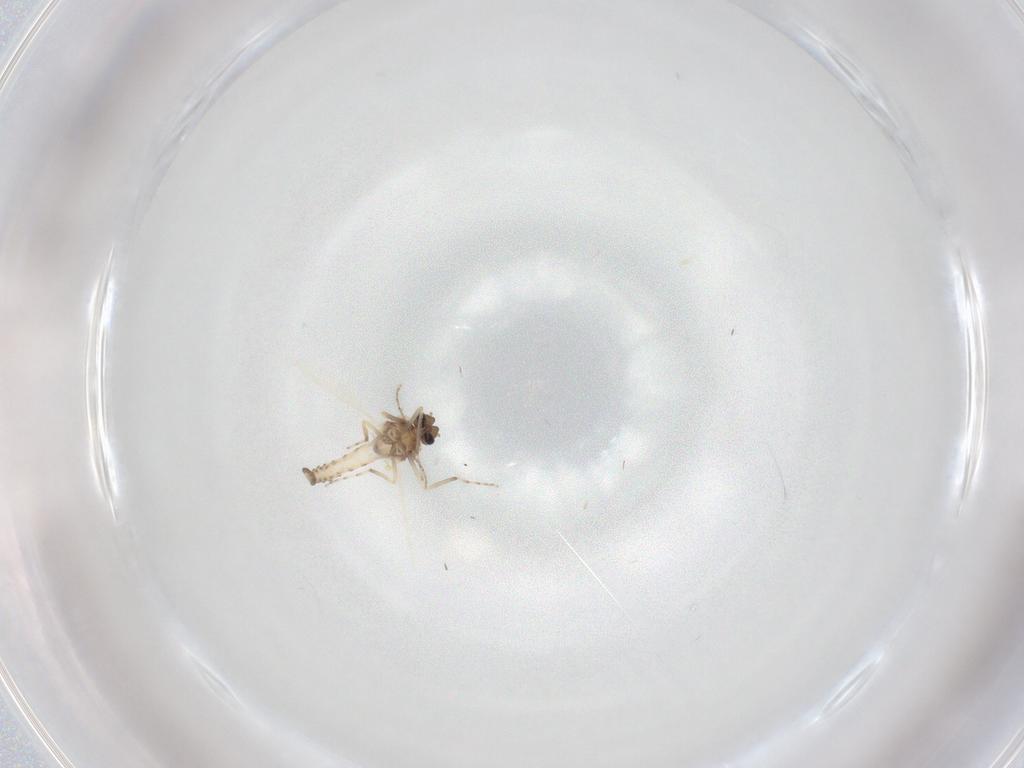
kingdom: Animalia
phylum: Arthropoda
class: Insecta
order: Diptera
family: Ceratopogonidae
